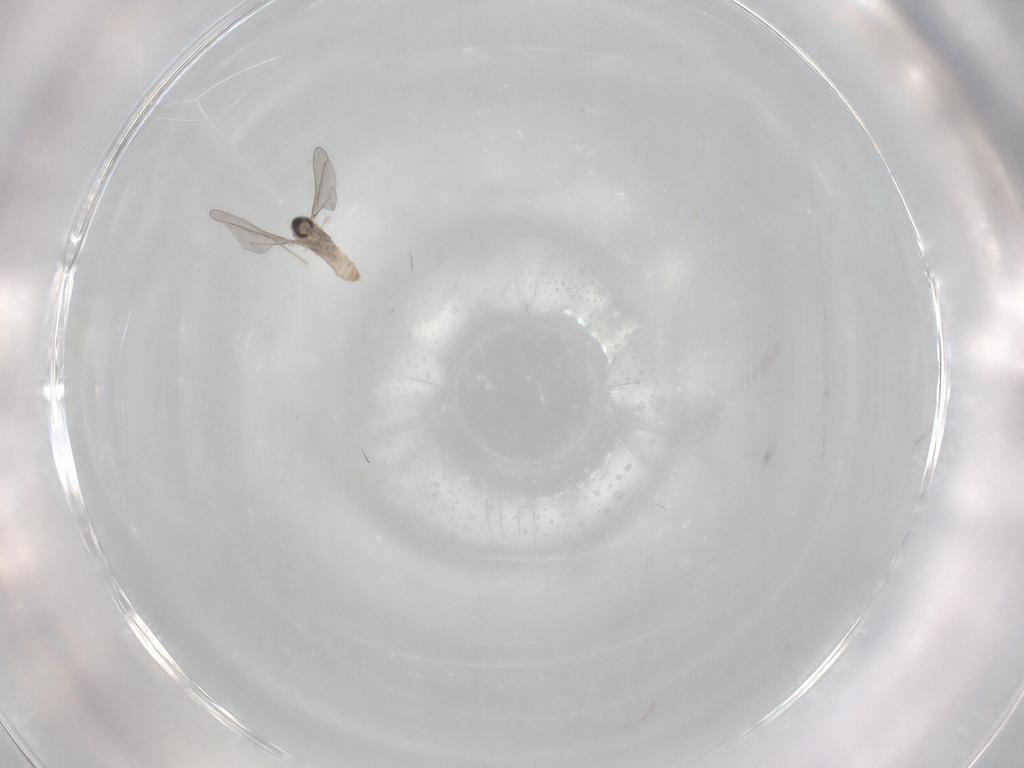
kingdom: Animalia
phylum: Arthropoda
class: Insecta
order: Diptera
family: Cecidomyiidae
